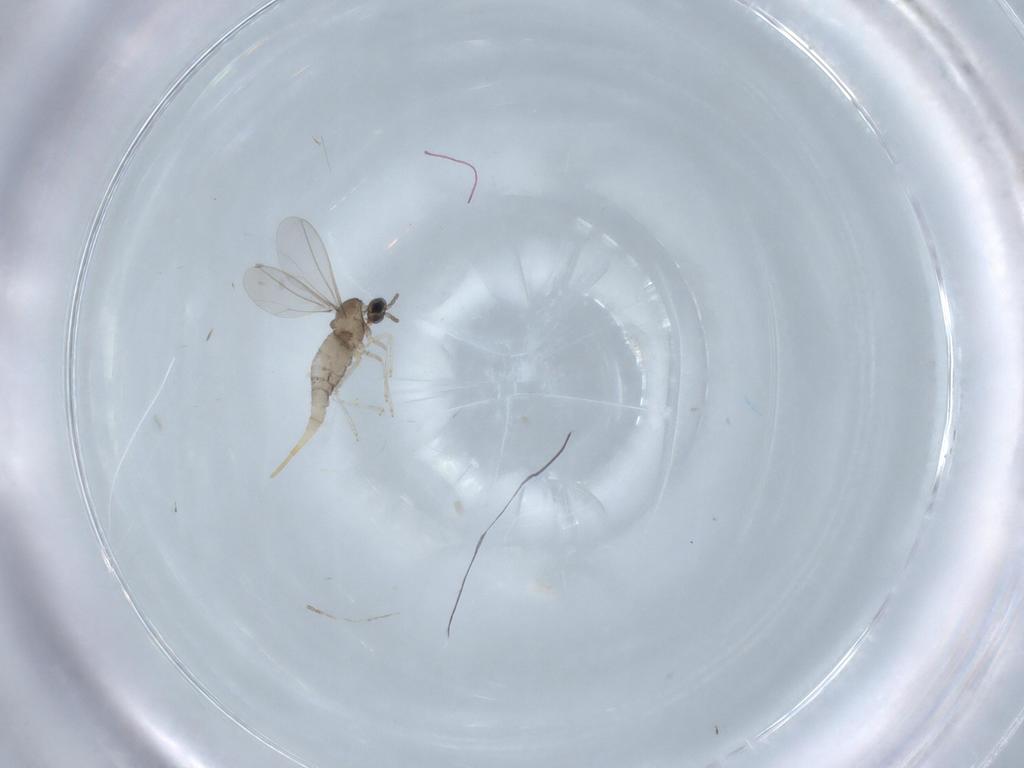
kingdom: Animalia
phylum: Arthropoda
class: Insecta
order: Diptera
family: Cecidomyiidae
